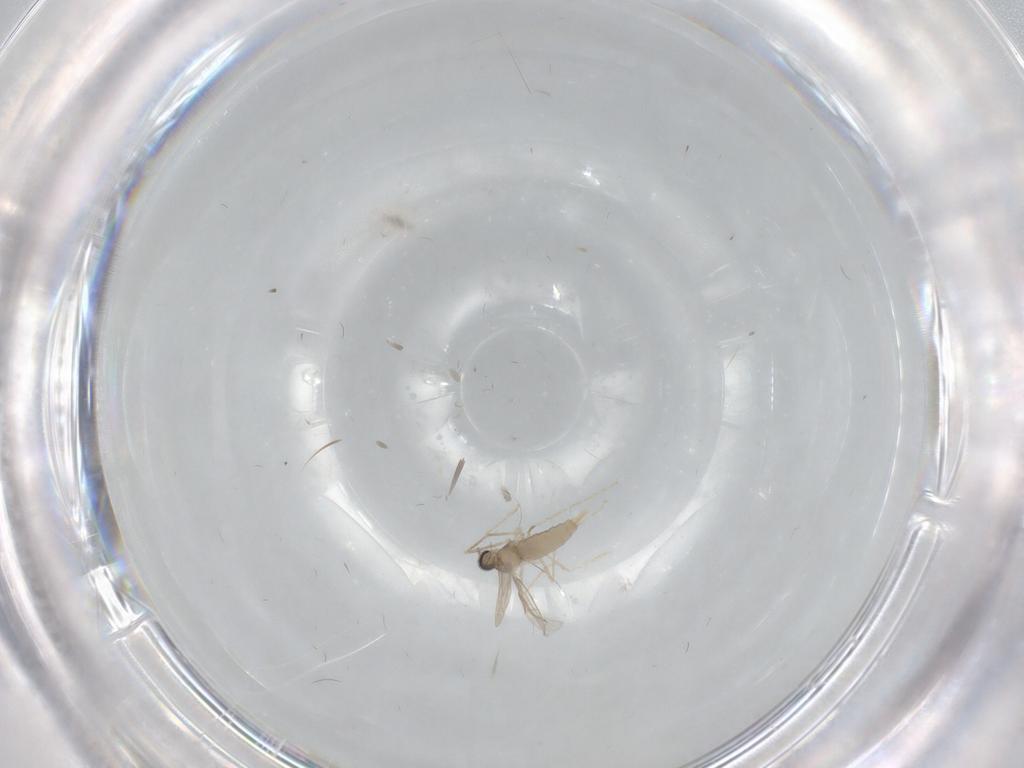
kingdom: Animalia
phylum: Arthropoda
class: Insecta
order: Diptera
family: Cecidomyiidae
